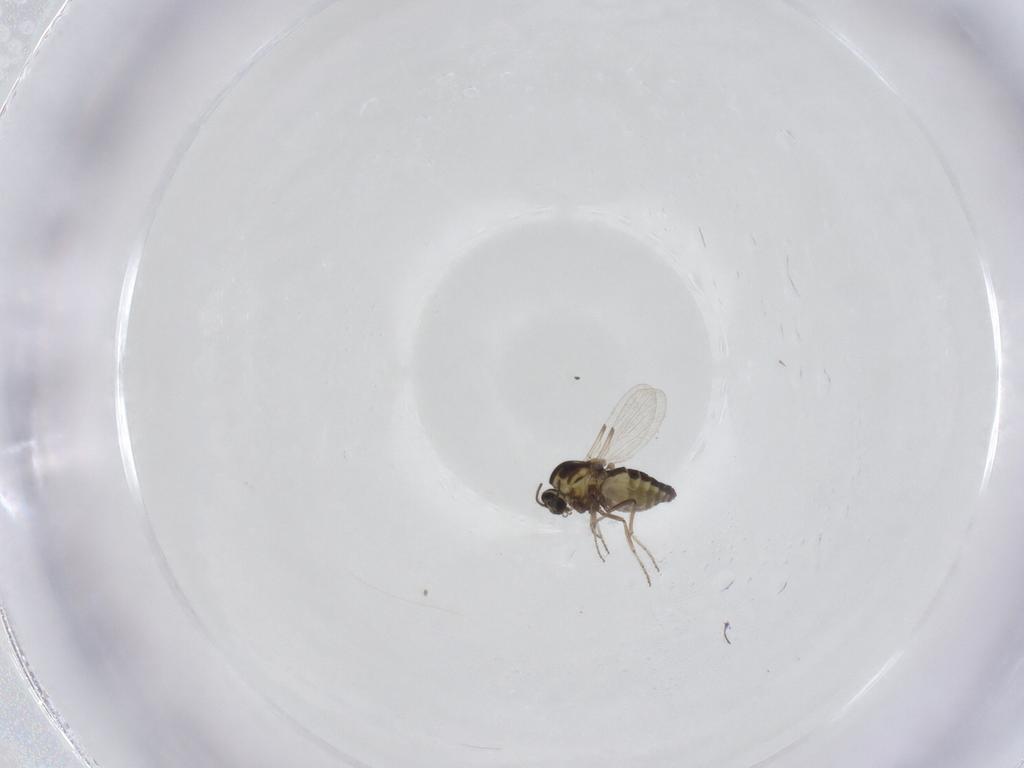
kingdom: Animalia
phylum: Arthropoda
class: Insecta
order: Diptera
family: Ceratopogonidae
